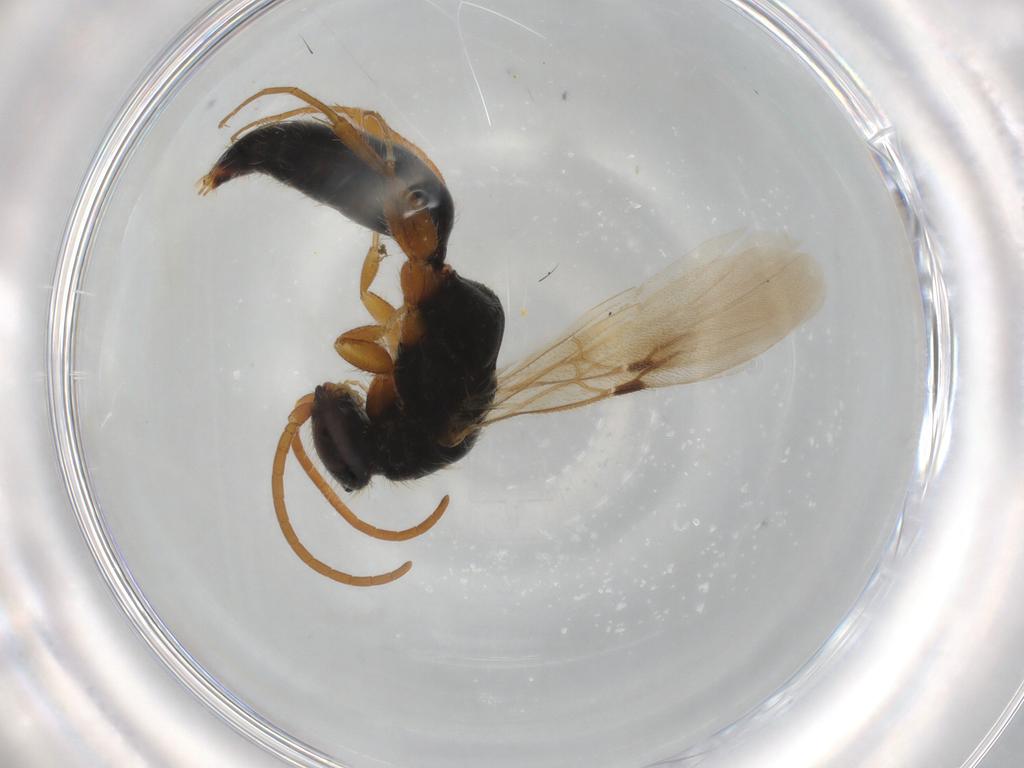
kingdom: Animalia
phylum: Arthropoda
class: Insecta
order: Hymenoptera
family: Bethylidae
